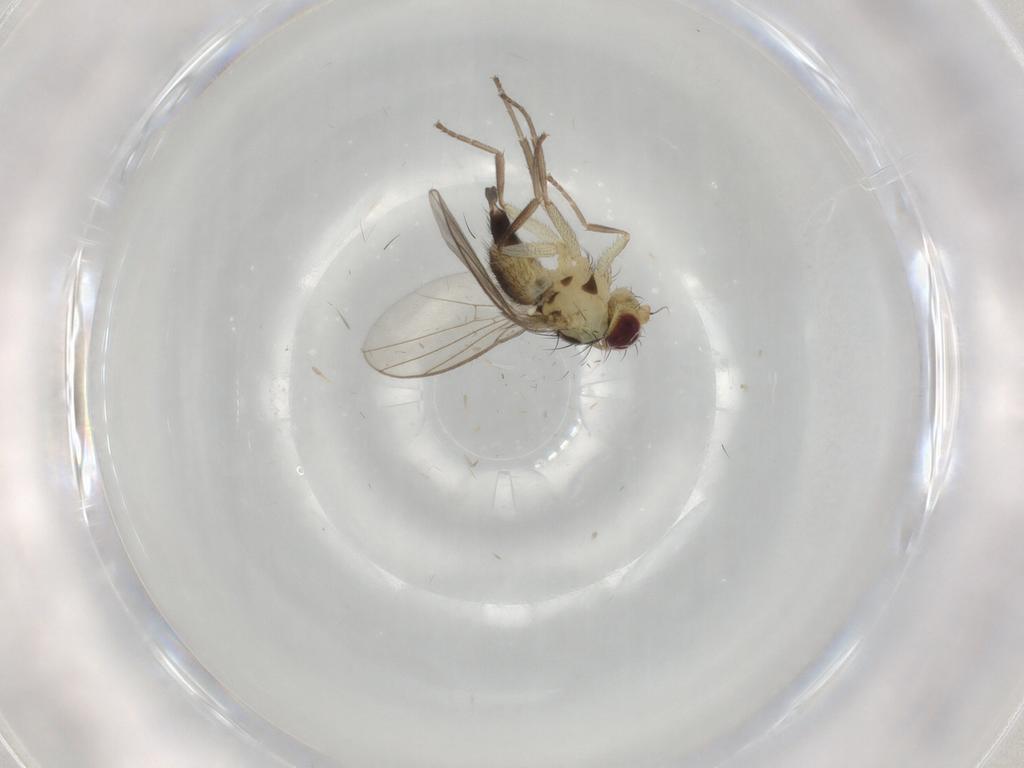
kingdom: Animalia
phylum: Arthropoda
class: Insecta
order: Diptera
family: Agromyzidae
